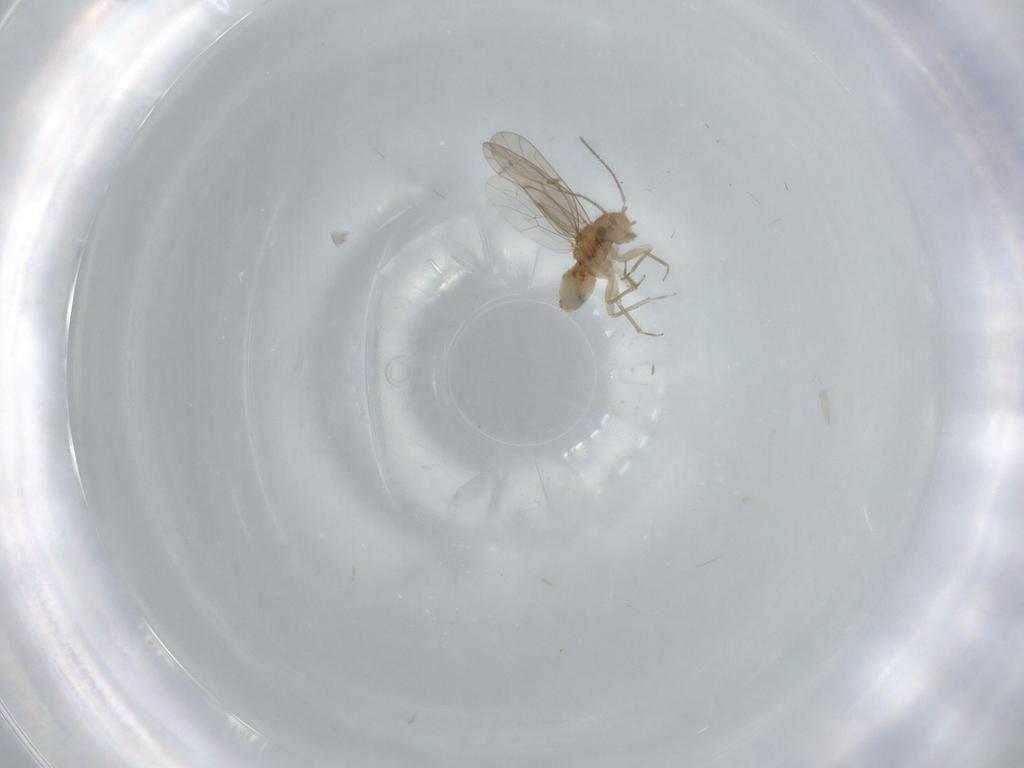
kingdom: Animalia
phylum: Arthropoda
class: Insecta
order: Psocodea
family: Ectopsocidae
